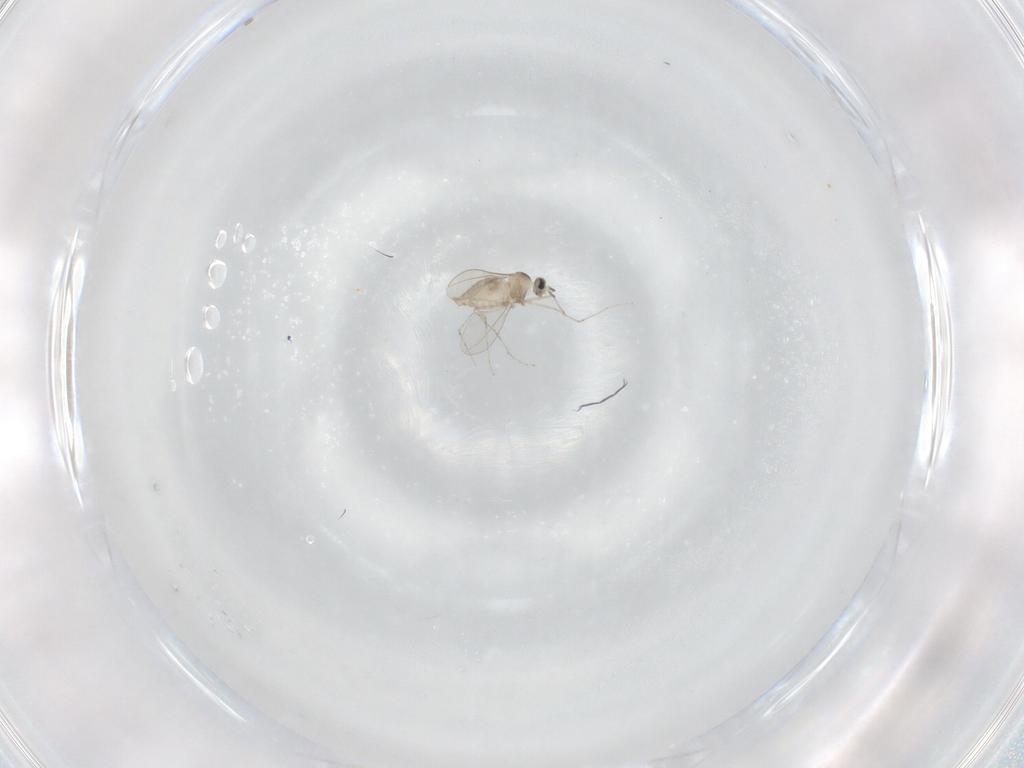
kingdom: Animalia
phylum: Arthropoda
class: Insecta
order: Diptera
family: Cecidomyiidae
